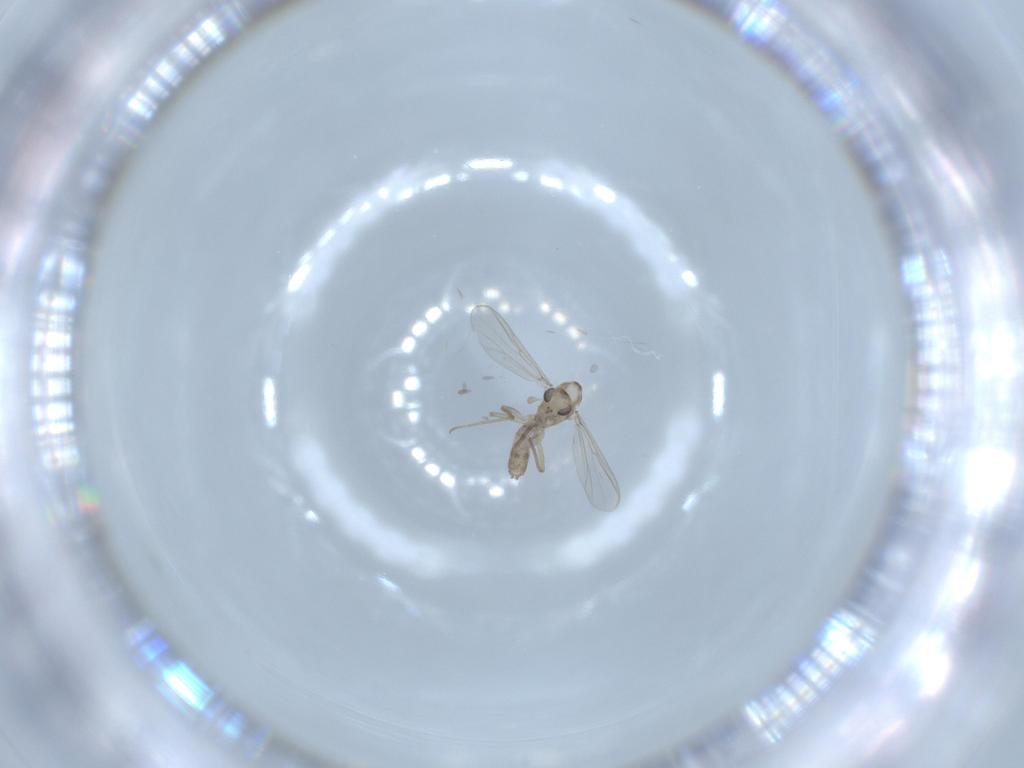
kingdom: Animalia
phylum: Arthropoda
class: Insecta
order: Diptera
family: Chironomidae
